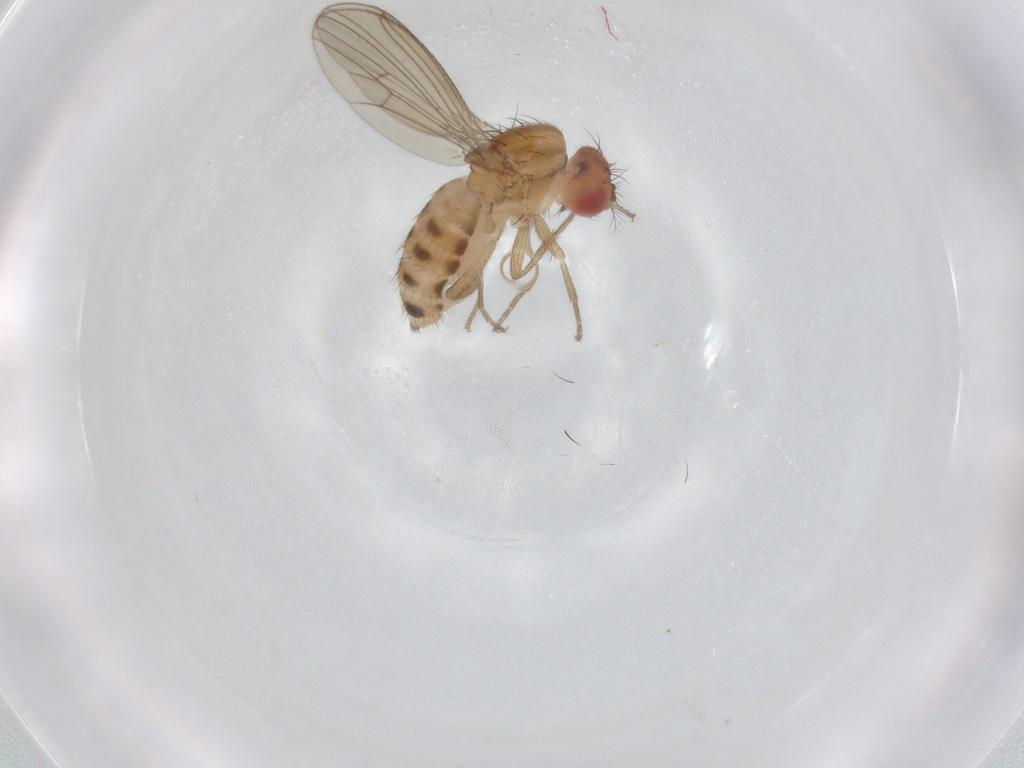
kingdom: Animalia
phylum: Arthropoda
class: Insecta
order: Diptera
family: Drosophilidae
